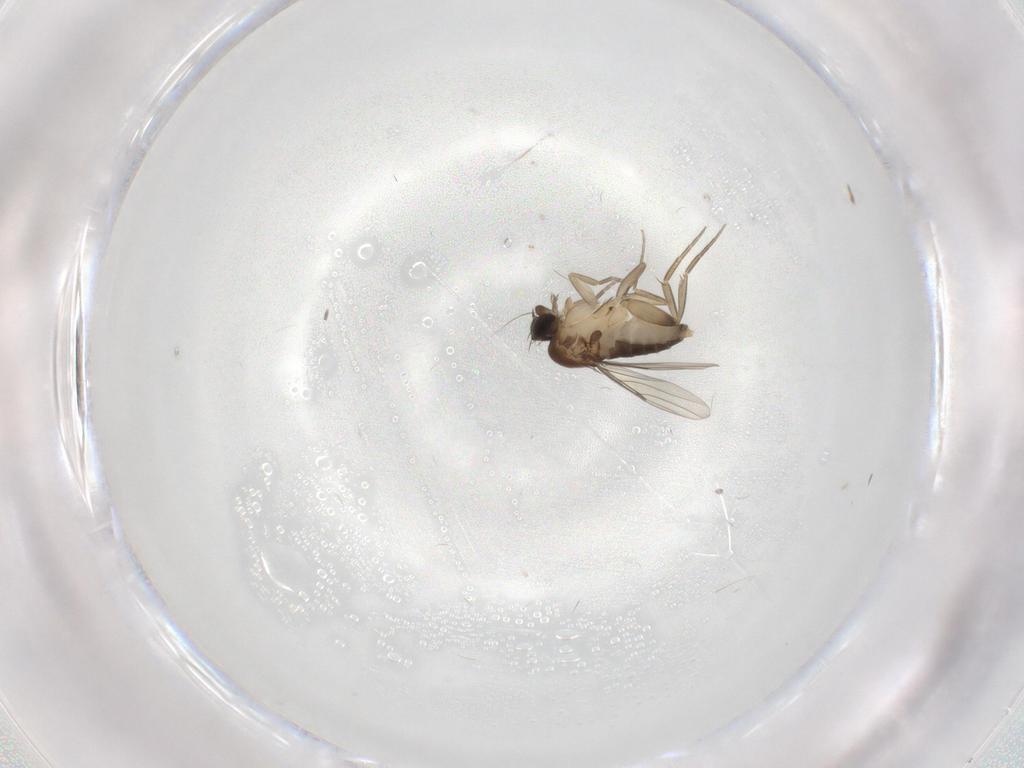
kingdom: Animalia
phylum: Arthropoda
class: Insecta
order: Diptera
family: Phoridae
